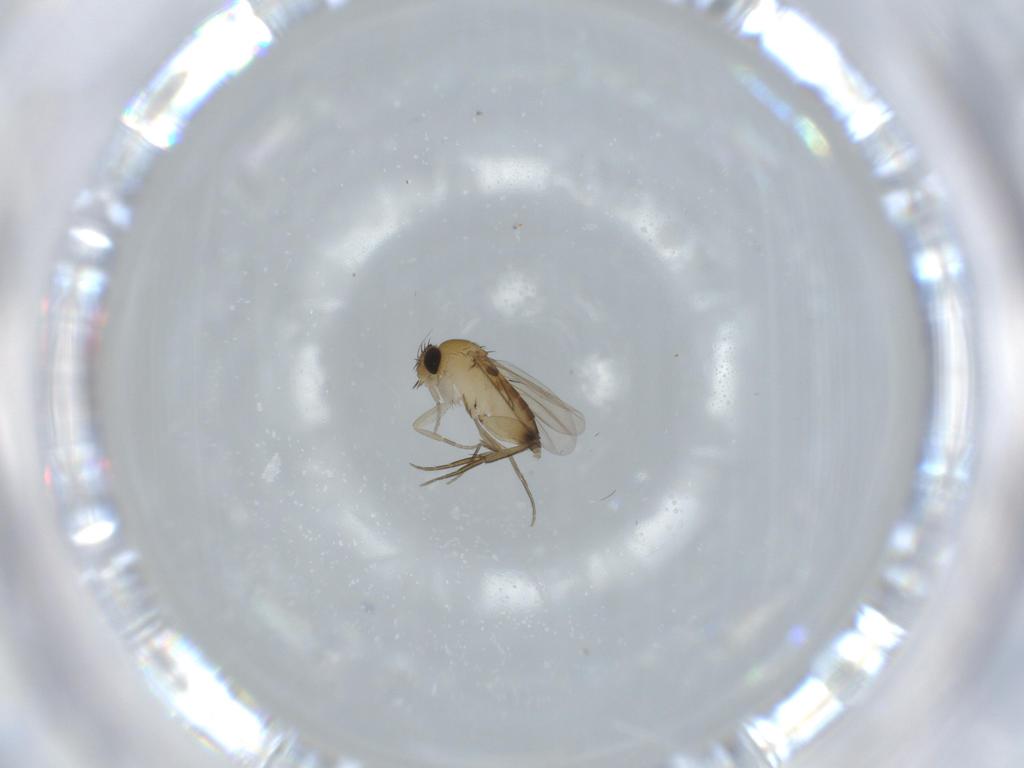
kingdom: Animalia
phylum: Arthropoda
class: Insecta
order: Diptera
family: Phoridae
